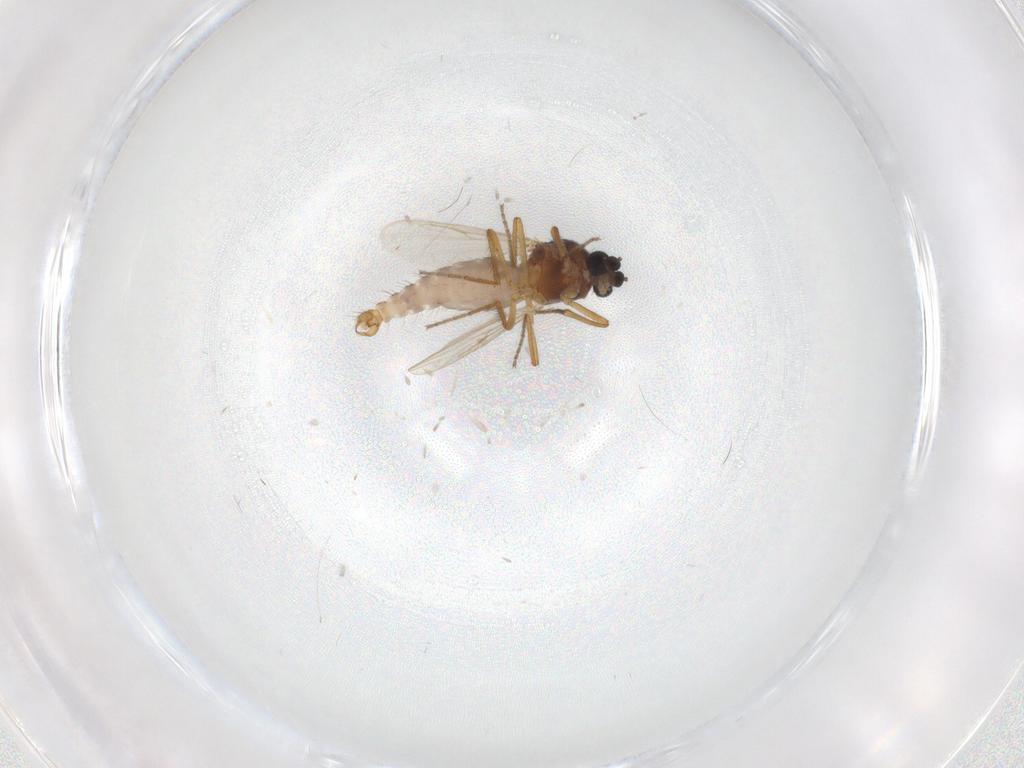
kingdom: Animalia
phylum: Arthropoda
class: Insecta
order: Diptera
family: Ceratopogonidae
